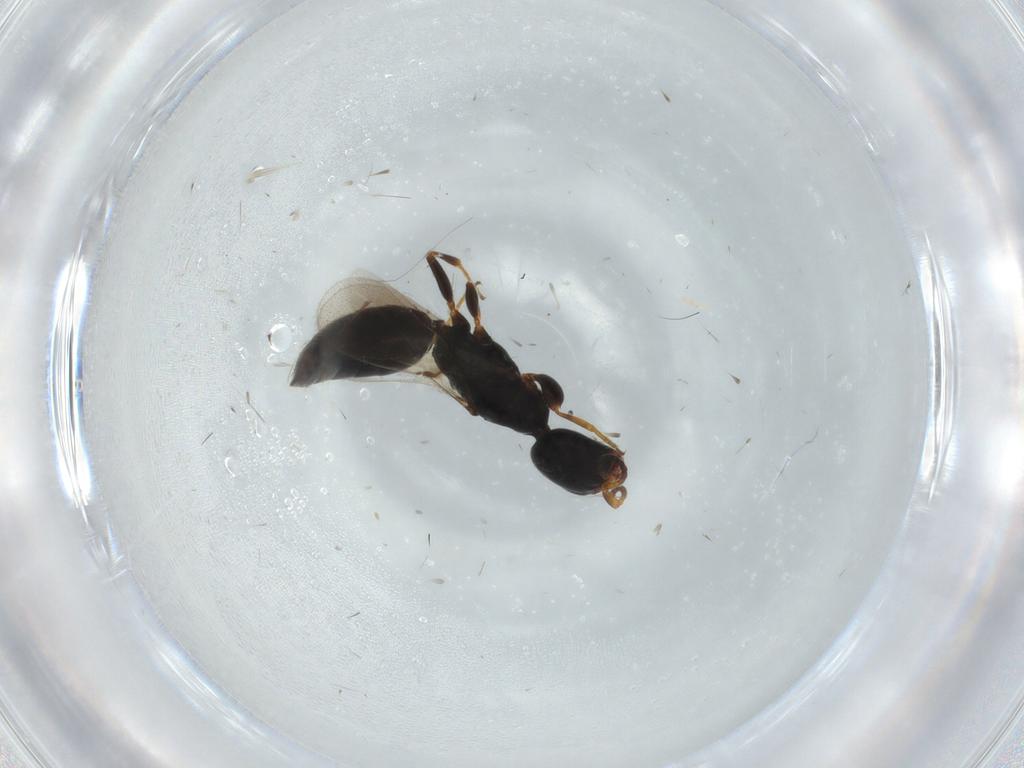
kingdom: Animalia
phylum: Arthropoda
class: Insecta
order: Hymenoptera
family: Bethylidae
